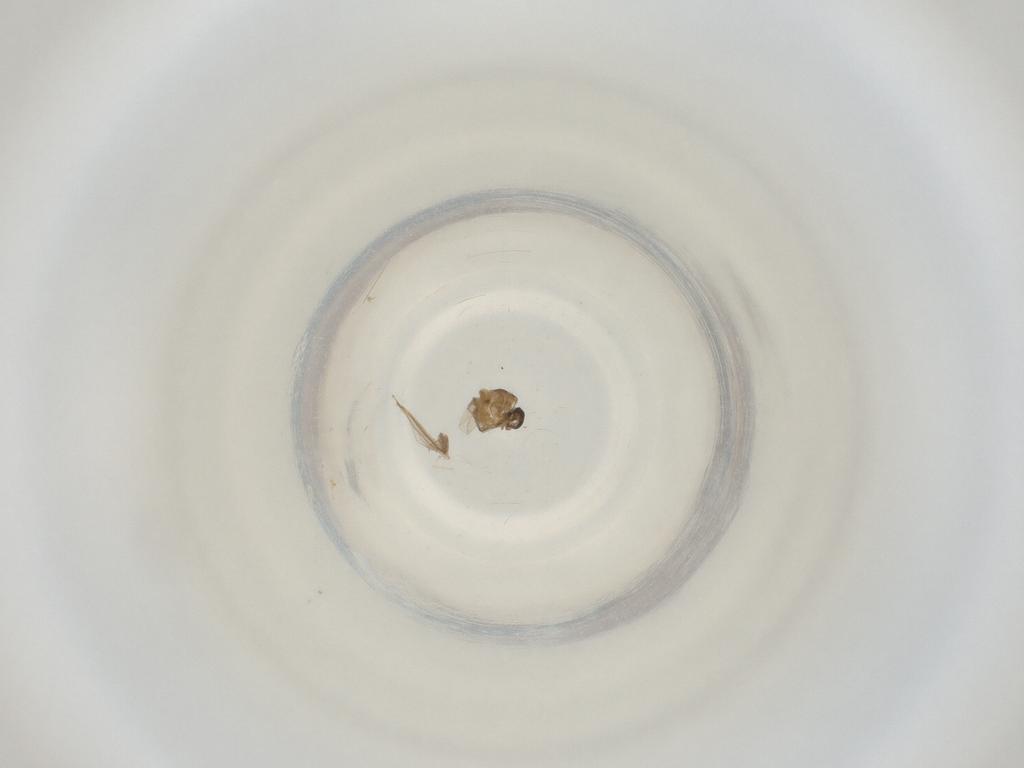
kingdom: Animalia
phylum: Arthropoda
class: Insecta
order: Diptera
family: Cecidomyiidae
